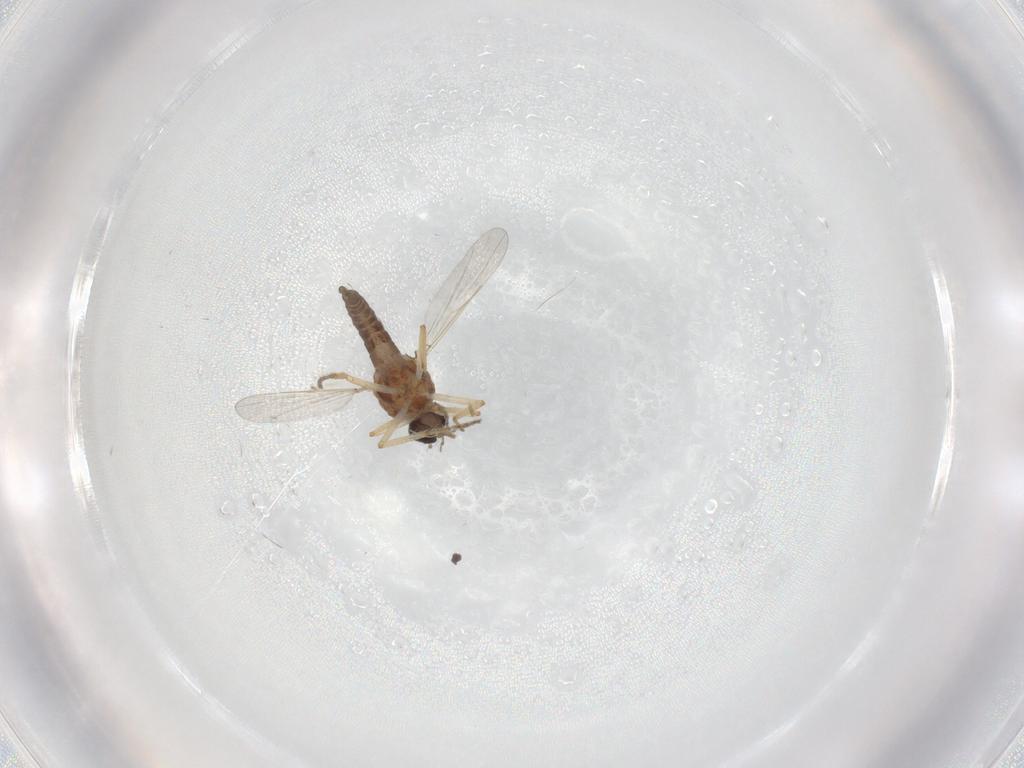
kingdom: Animalia
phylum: Arthropoda
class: Insecta
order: Diptera
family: Ceratopogonidae
